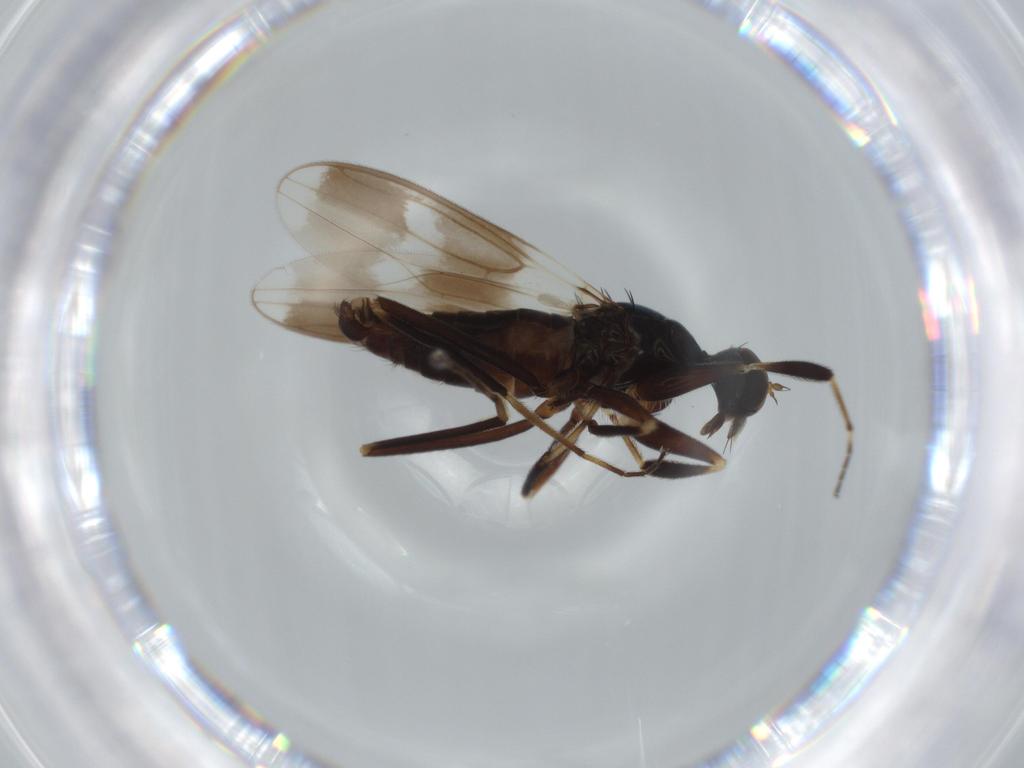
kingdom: Animalia
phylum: Arthropoda
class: Insecta
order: Diptera
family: Hybotidae
